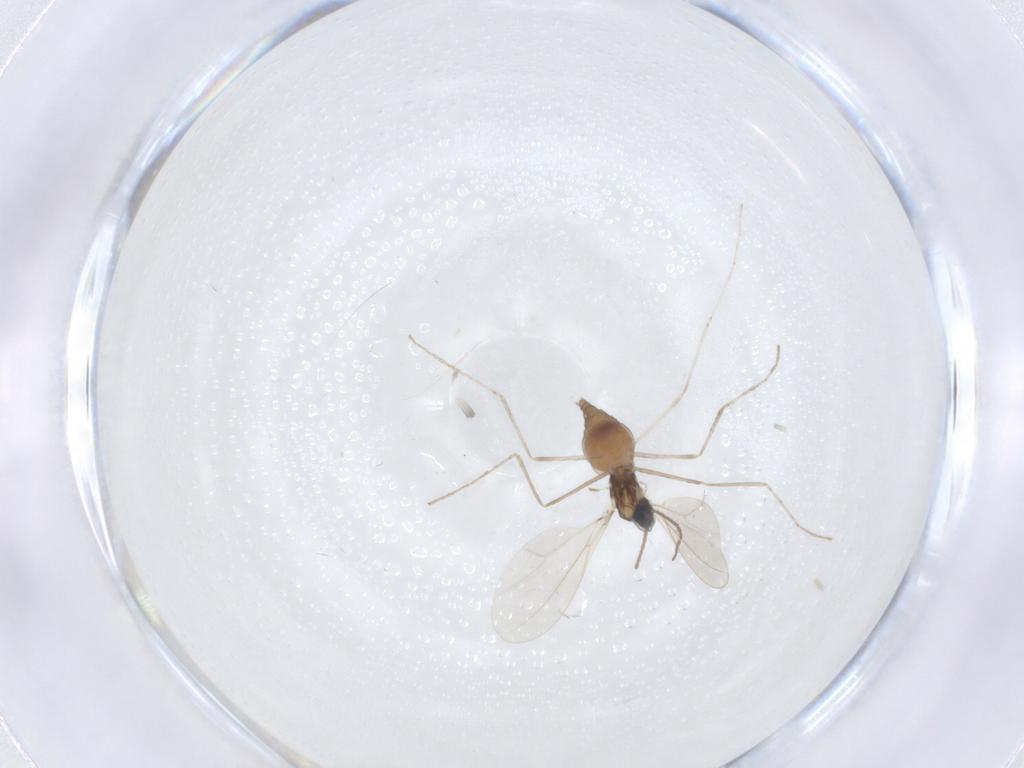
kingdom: Animalia
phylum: Arthropoda
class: Insecta
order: Diptera
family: Cecidomyiidae
